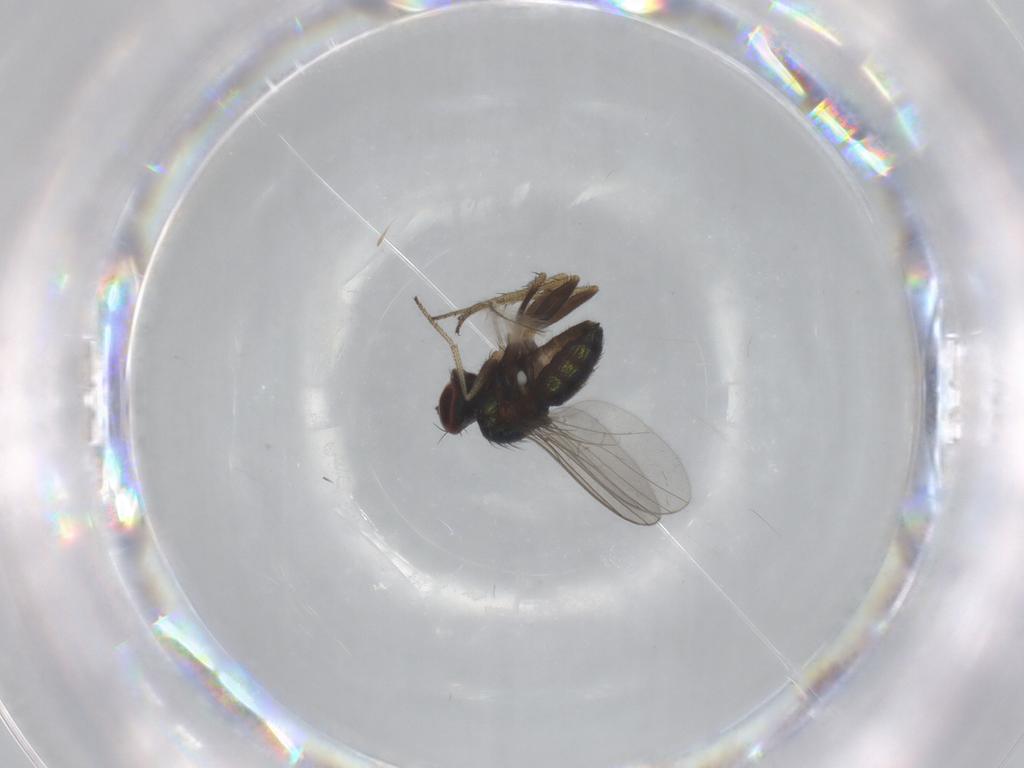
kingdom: Animalia
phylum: Arthropoda
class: Insecta
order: Diptera
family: Dolichopodidae
